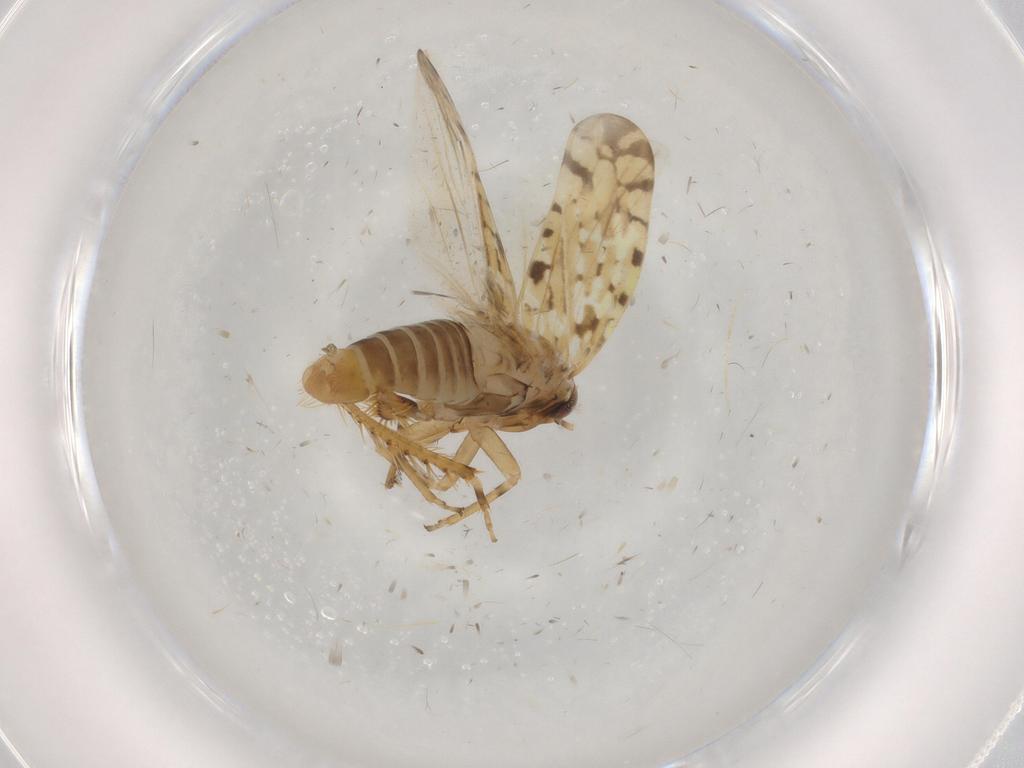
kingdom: Animalia
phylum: Arthropoda
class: Insecta
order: Hemiptera
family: Cicadellidae
